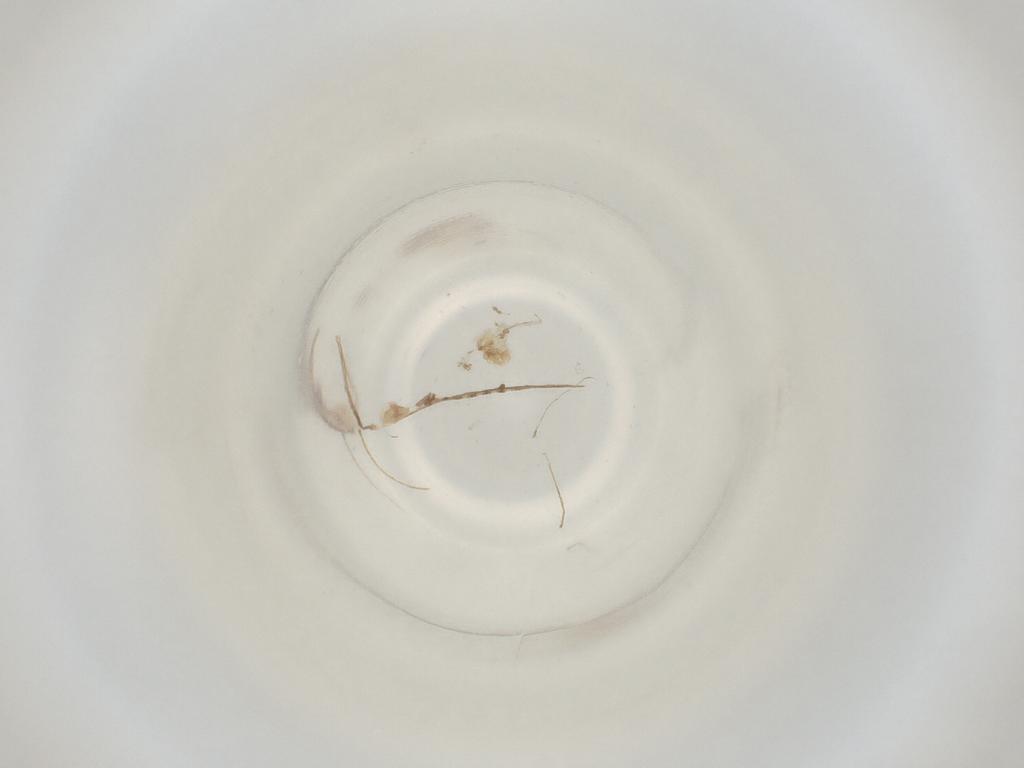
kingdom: Animalia
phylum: Arthropoda
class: Insecta
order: Diptera
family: Cecidomyiidae
